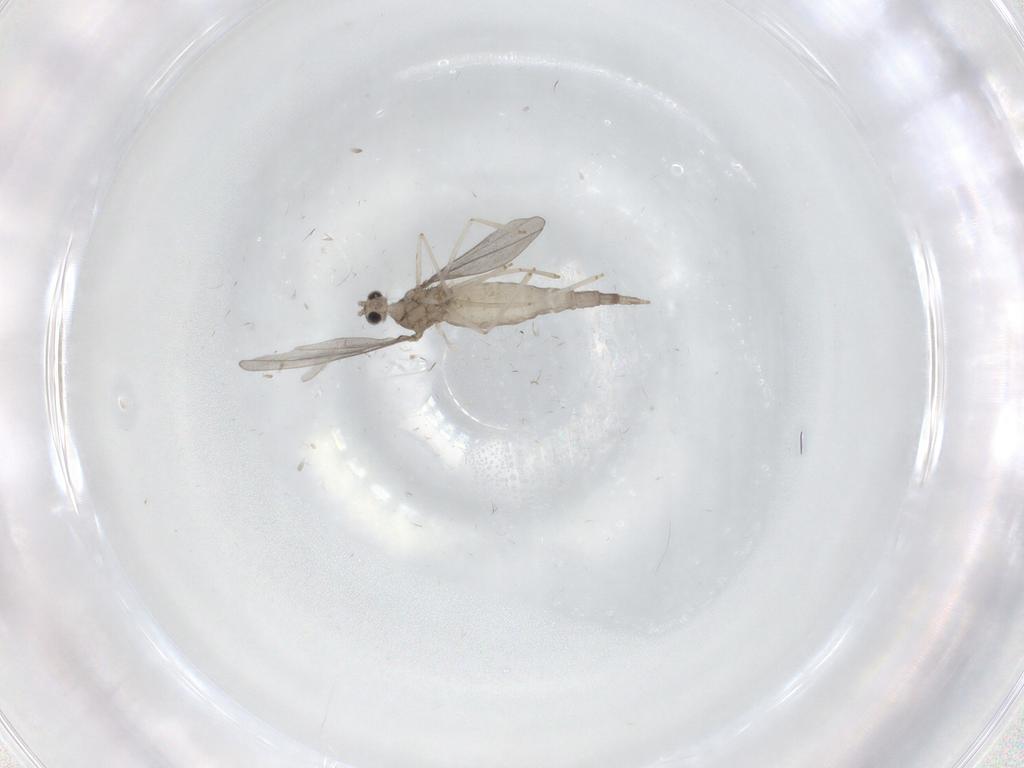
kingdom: Animalia
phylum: Arthropoda
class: Insecta
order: Diptera
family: Cecidomyiidae
